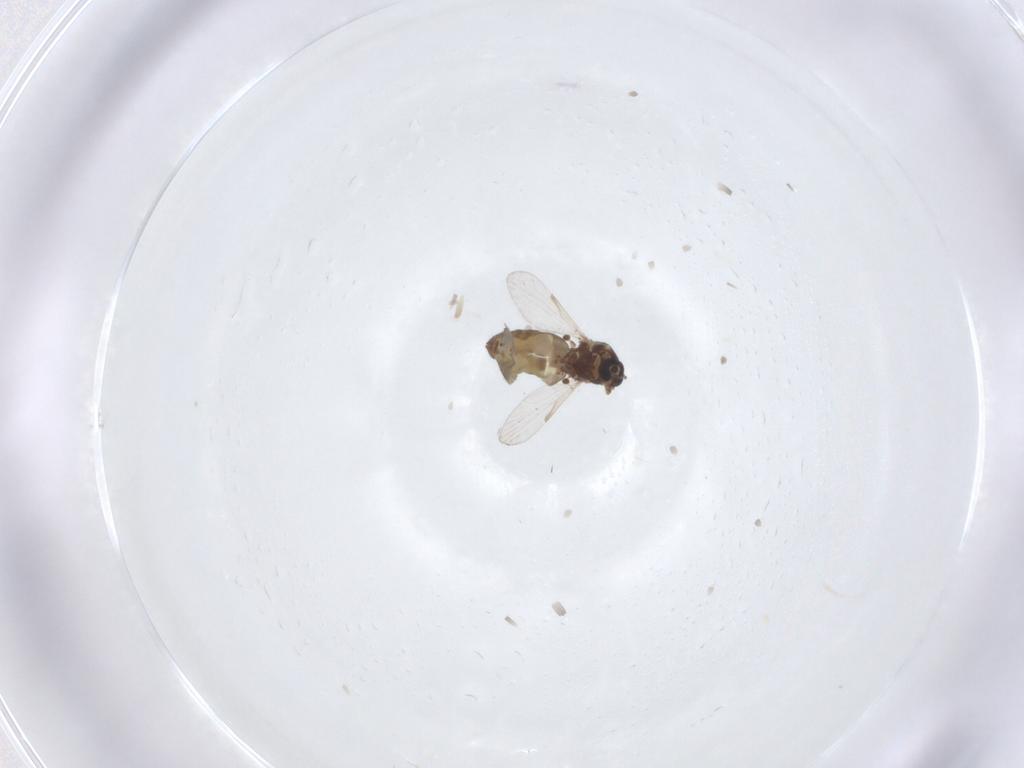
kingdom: Animalia
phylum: Arthropoda
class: Insecta
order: Diptera
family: Ceratopogonidae
